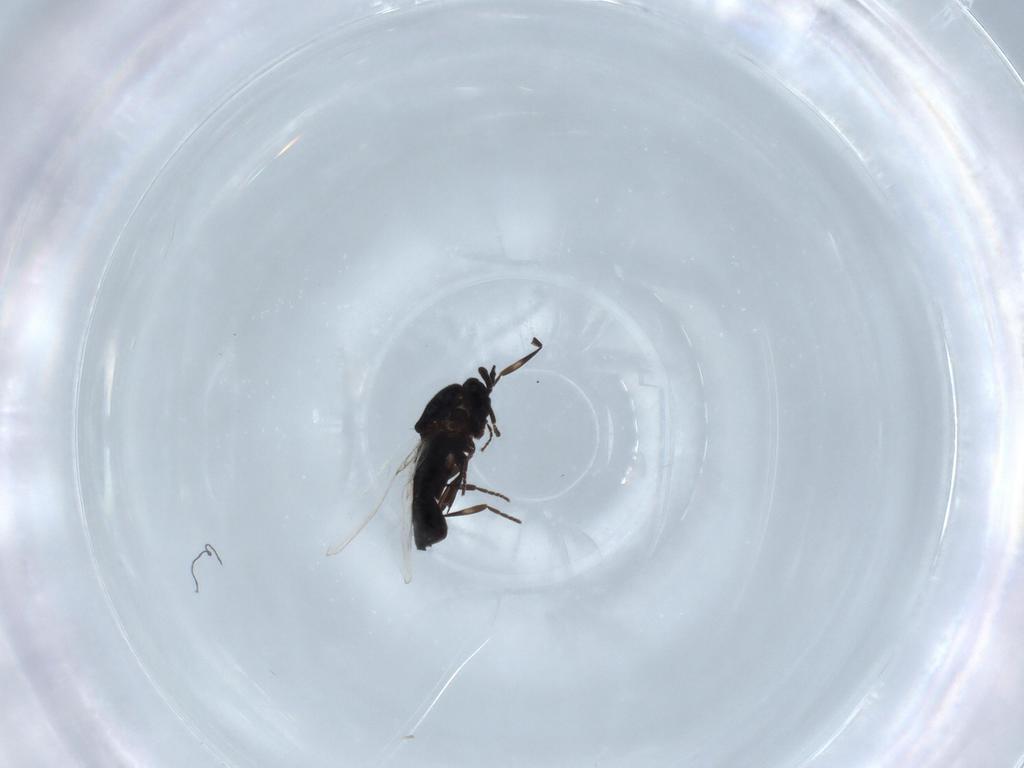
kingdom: Animalia
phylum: Arthropoda
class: Insecta
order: Diptera
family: Scatopsidae
